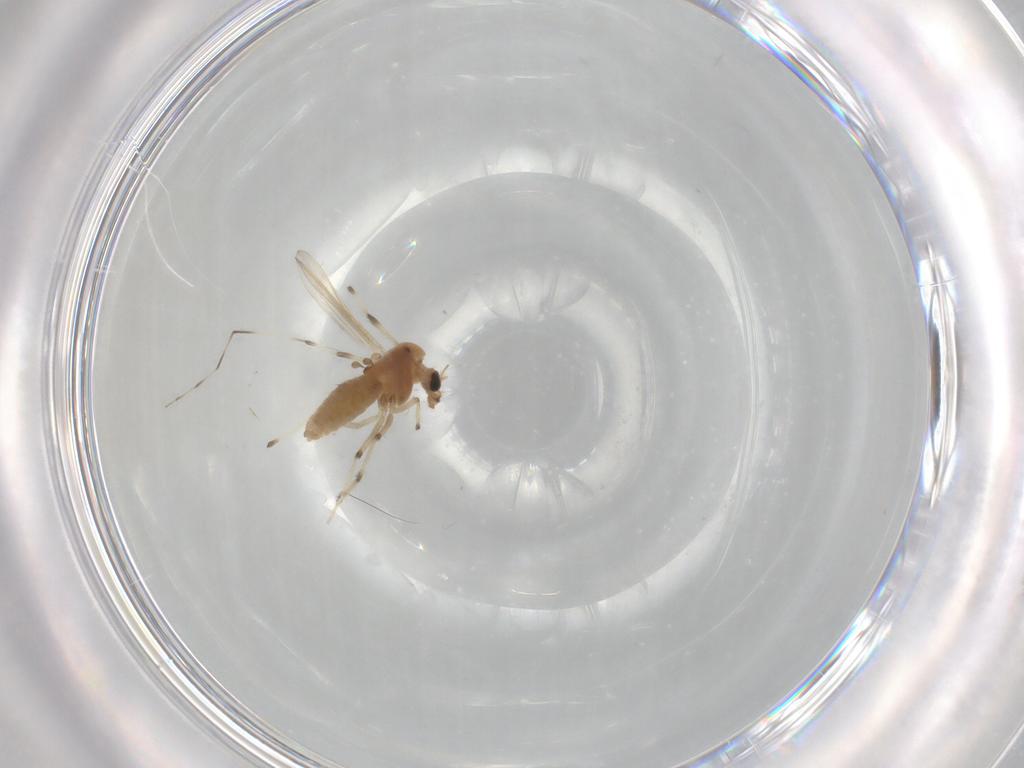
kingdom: Animalia
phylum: Arthropoda
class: Insecta
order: Diptera
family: Chironomidae
